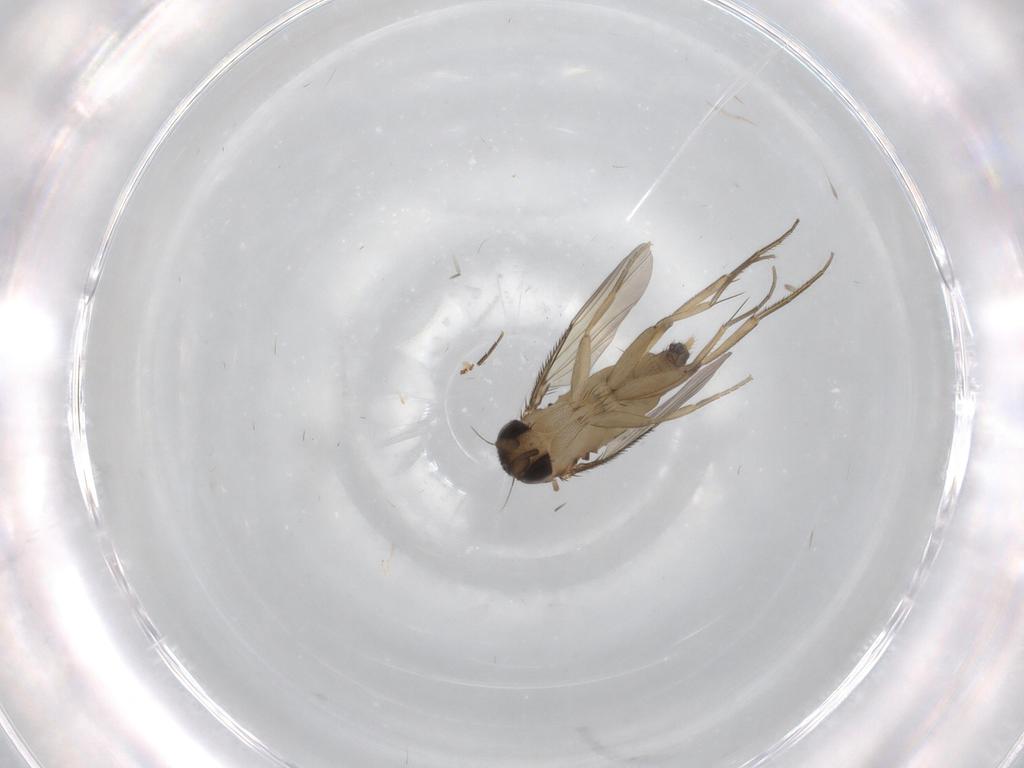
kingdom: Animalia
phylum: Arthropoda
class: Insecta
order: Diptera
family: Phoridae
